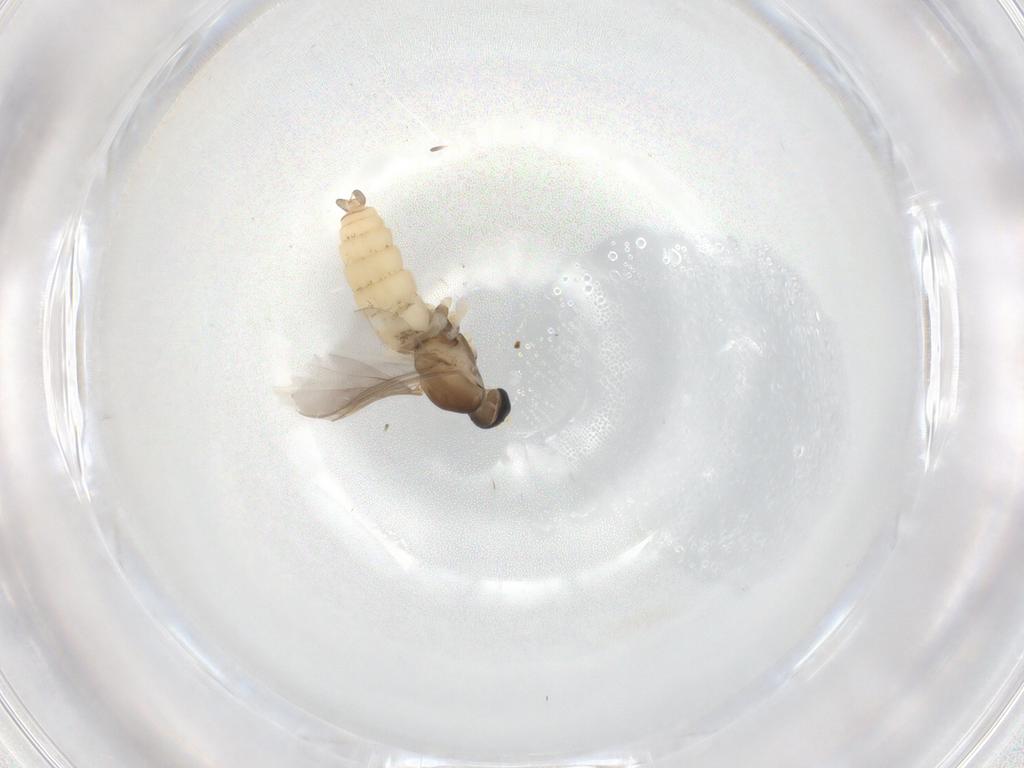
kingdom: Animalia
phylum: Arthropoda
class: Insecta
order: Diptera
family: Cecidomyiidae
